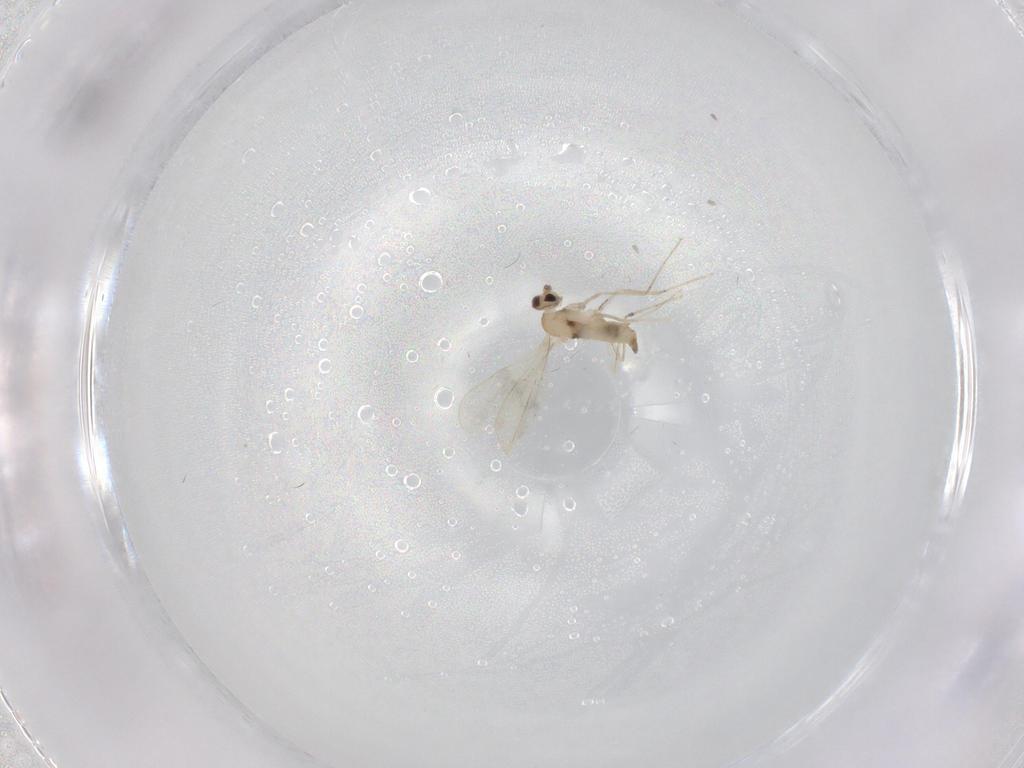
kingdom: Animalia
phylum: Arthropoda
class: Insecta
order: Diptera
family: Cecidomyiidae
